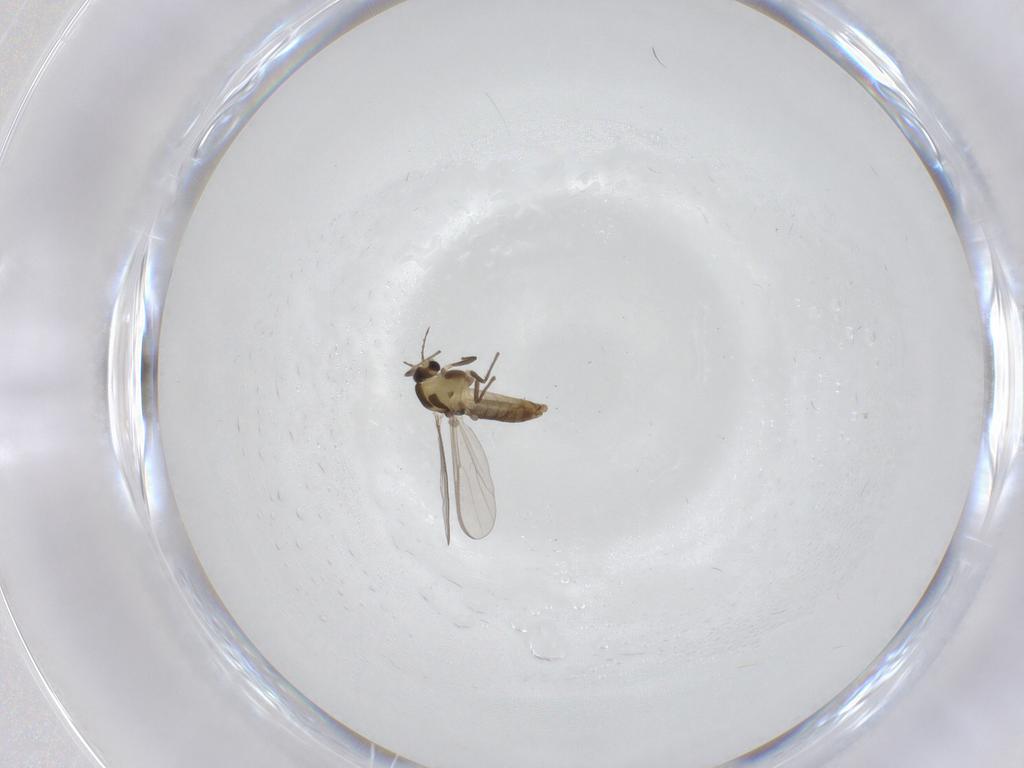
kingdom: Animalia
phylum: Arthropoda
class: Insecta
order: Diptera
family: Chironomidae
